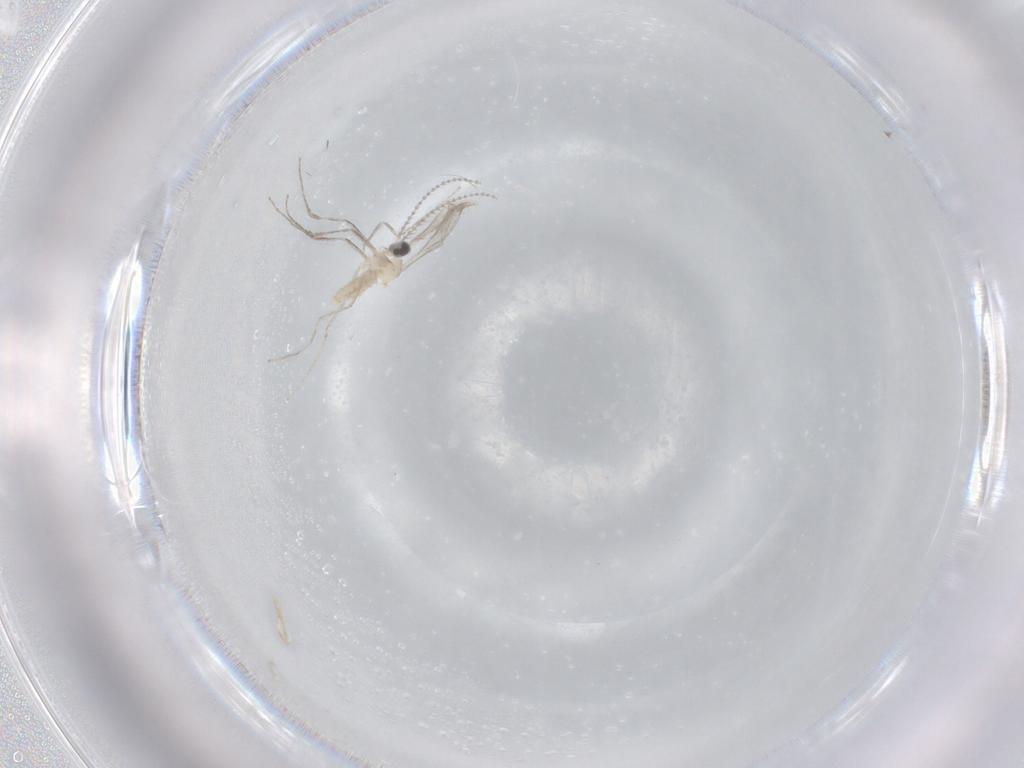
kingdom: Animalia
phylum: Arthropoda
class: Insecta
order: Diptera
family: Cecidomyiidae
